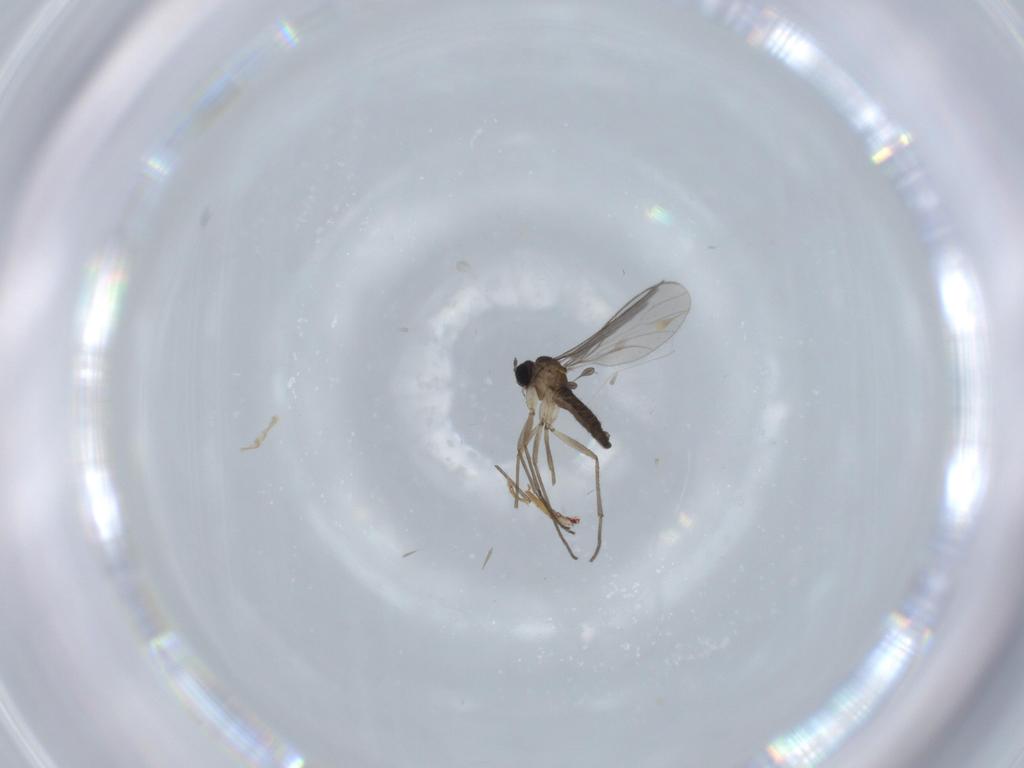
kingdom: Animalia
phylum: Arthropoda
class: Insecta
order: Diptera
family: Sciaridae
